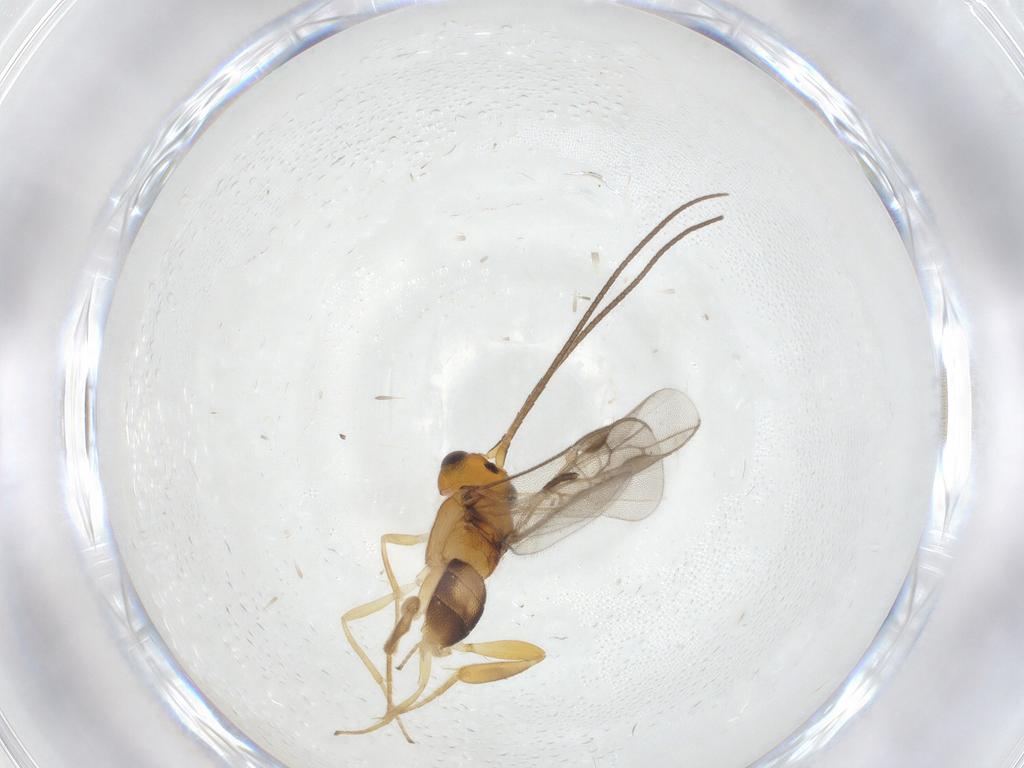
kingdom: Animalia
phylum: Arthropoda
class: Insecta
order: Hymenoptera
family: Braconidae
